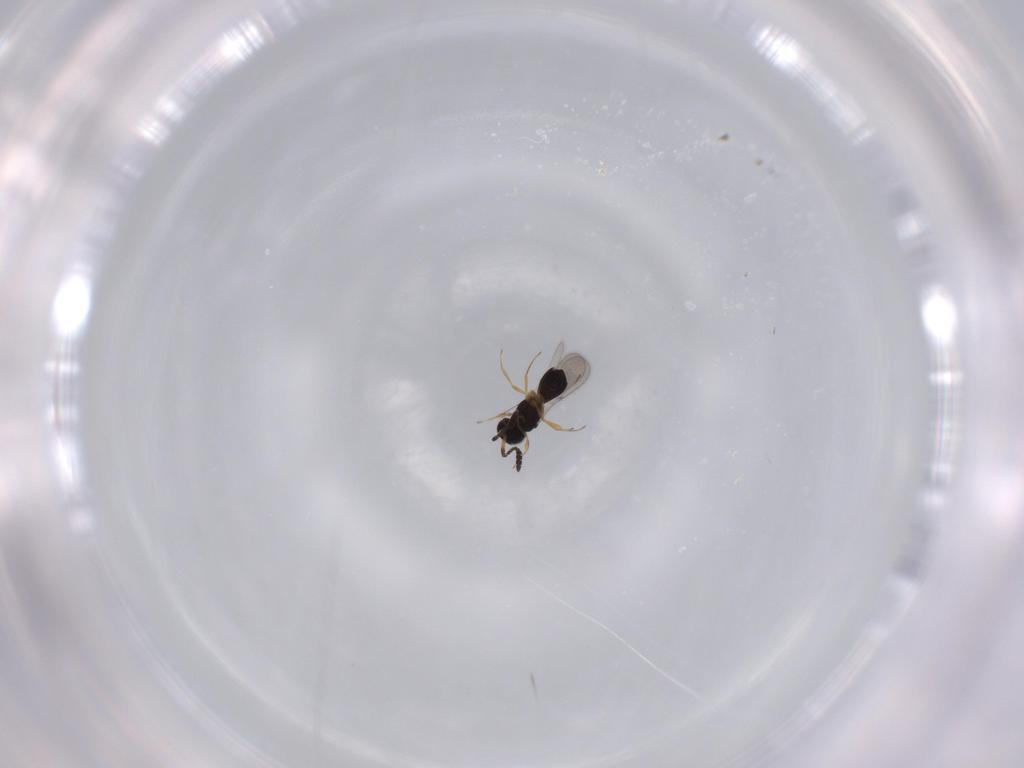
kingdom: Animalia
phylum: Arthropoda
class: Insecta
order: Hymenoptera
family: Scelionidae
